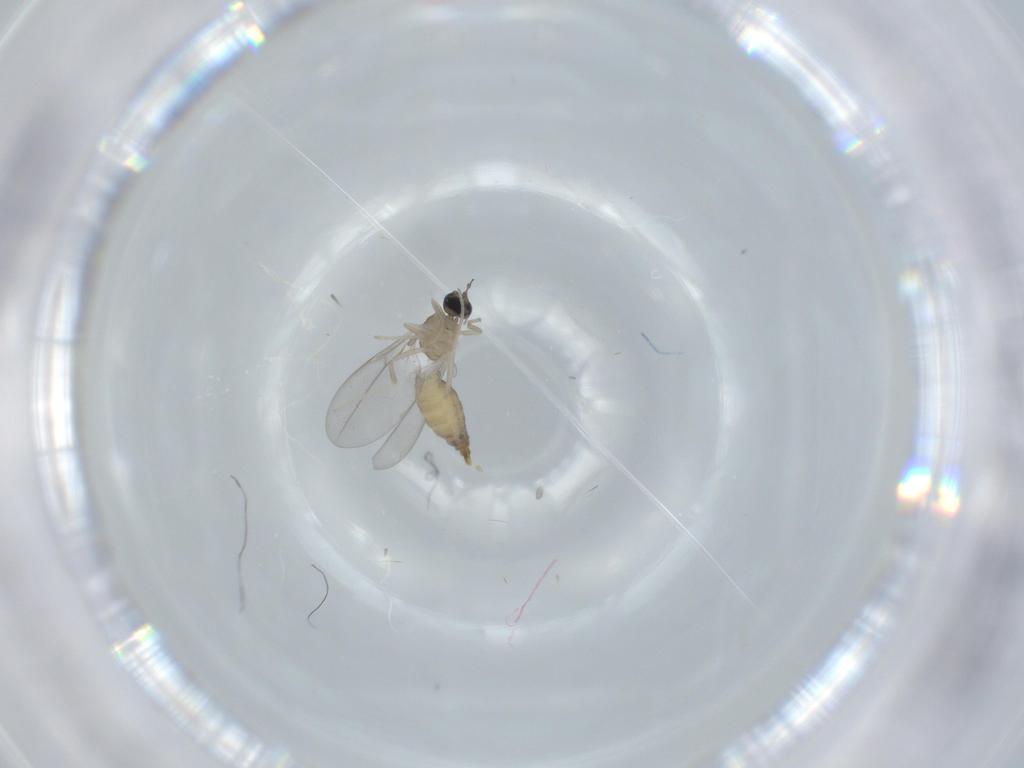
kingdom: Animalia
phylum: Arthropoda
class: Insecta
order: Diptera
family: Cecidomyiidae
